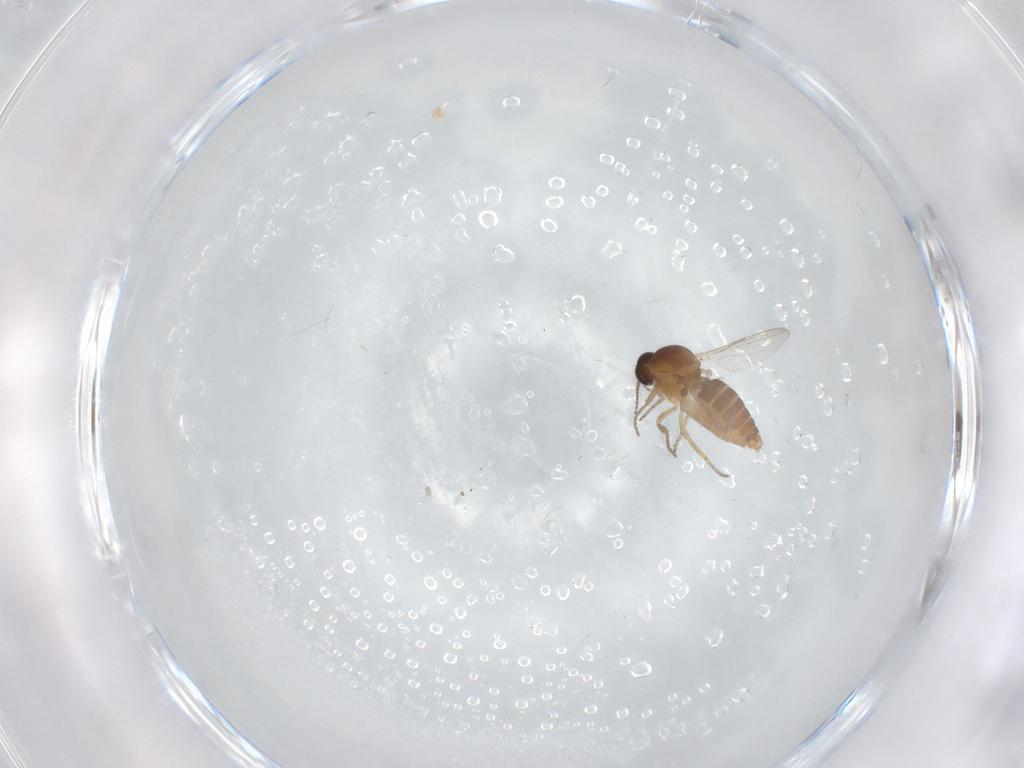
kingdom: Animalia
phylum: Arthropoda
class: Insecta
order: Diptera
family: Ceratopogonidae
